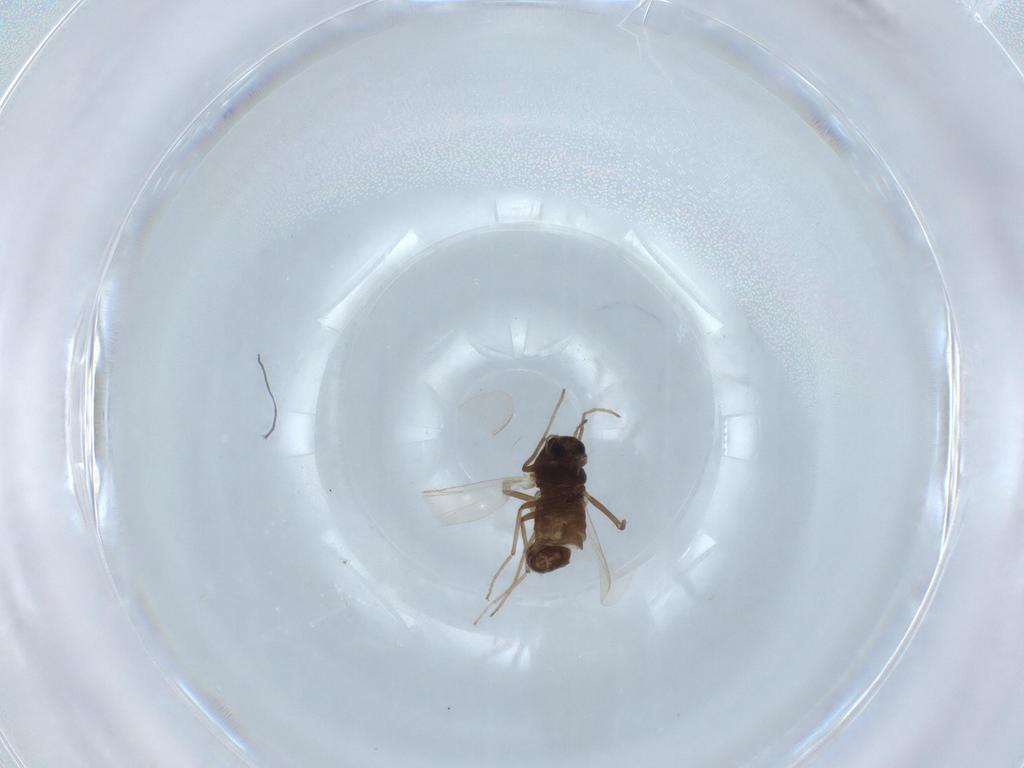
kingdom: Animalia
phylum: Arthropoda
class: Insecta
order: Diptera
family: Chironomidae
